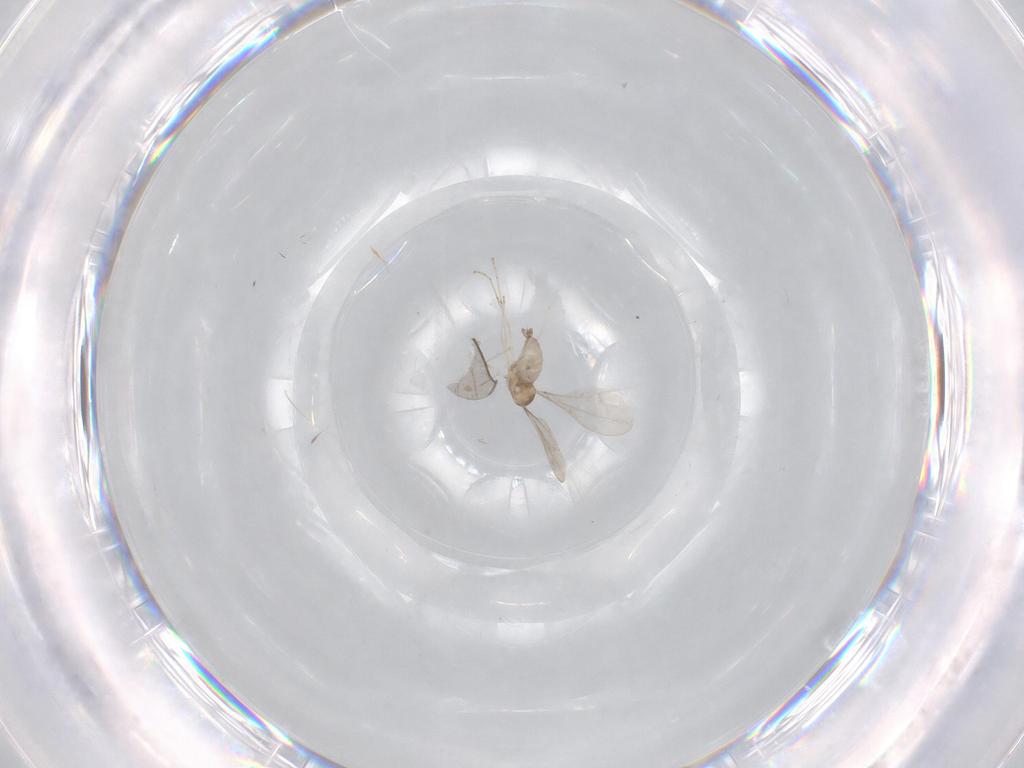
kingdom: Animalia
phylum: Arthropoda
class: Insecta
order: Diptera
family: Cecidomyiidae
